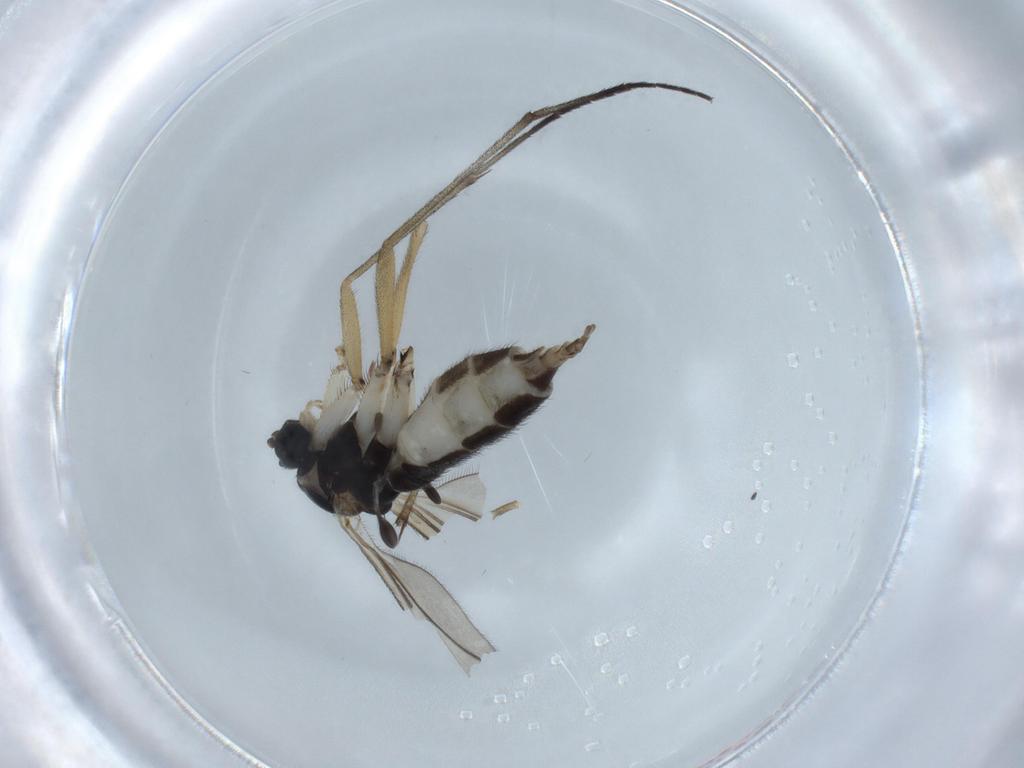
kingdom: Animalia
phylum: Arthropoda
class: Insecta
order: Diptera
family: Sciaridae
